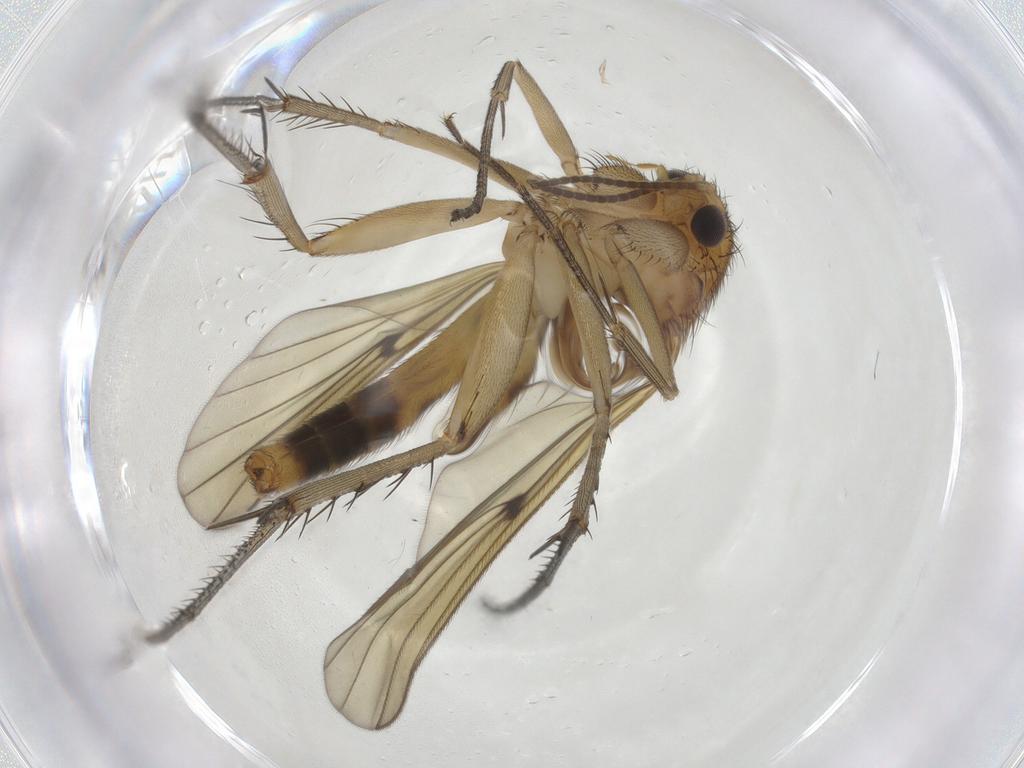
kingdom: Animalia
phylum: Arthropoda
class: Insecta
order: Diptera
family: Mycetophilidae
